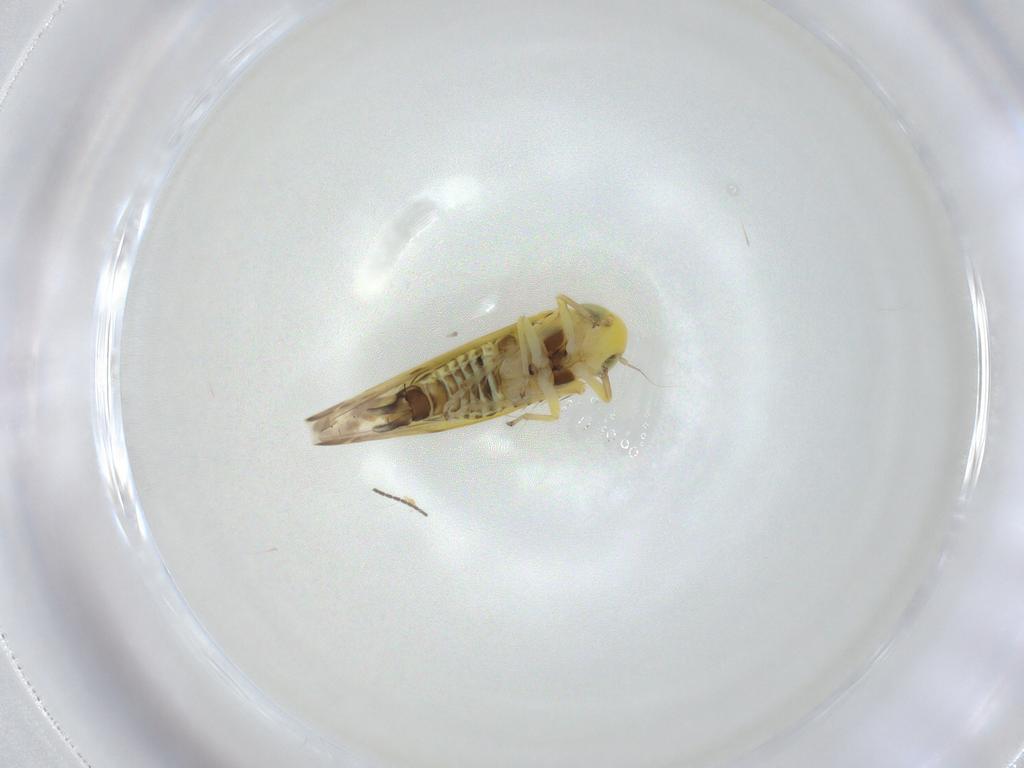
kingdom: Animalia
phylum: Arthropoda
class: Insecta
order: Hemiptera
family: Cicadellidae
